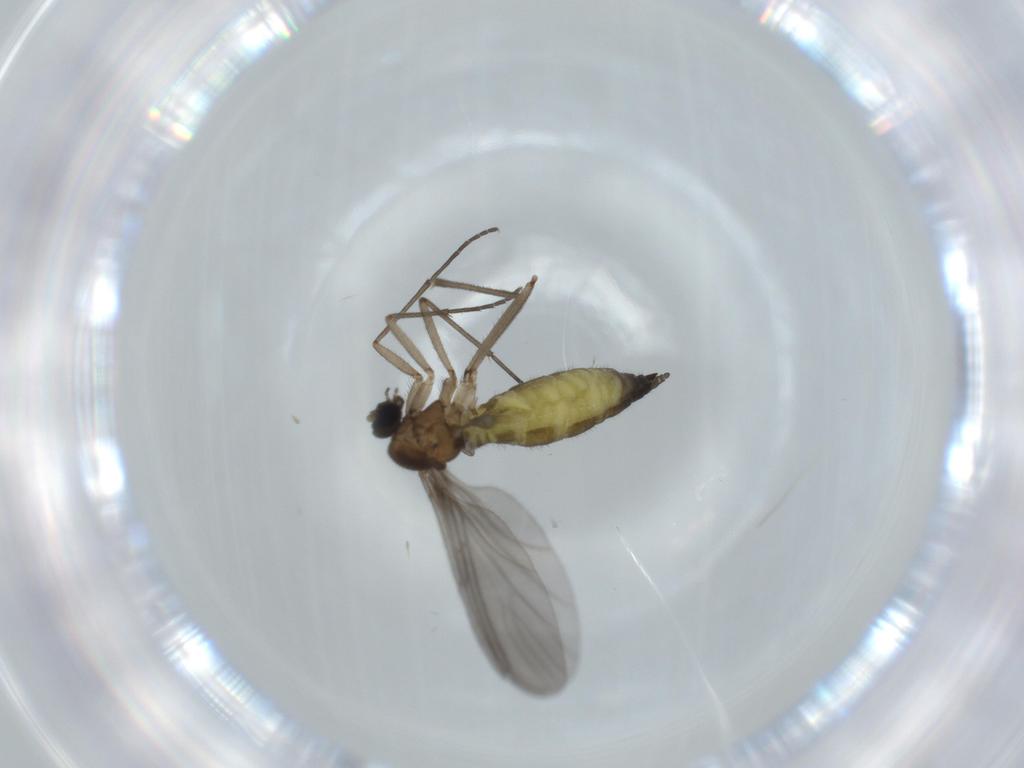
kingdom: Animalia
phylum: Arthropoda
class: Insecta
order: Diptera
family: Sciaridae
